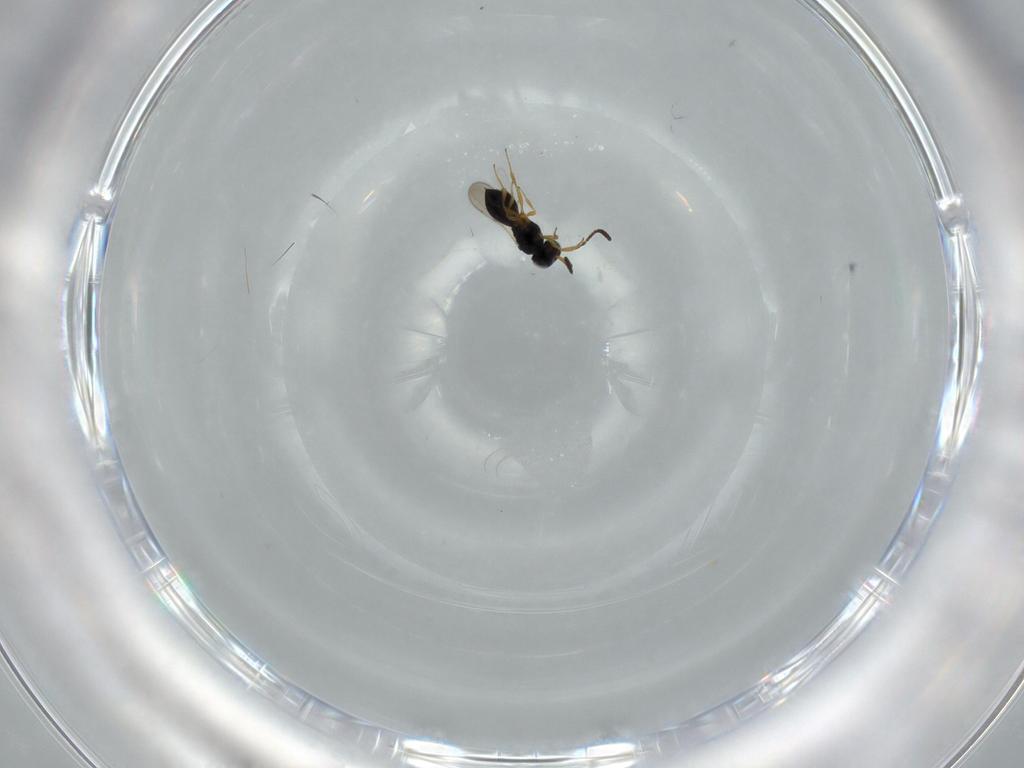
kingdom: Animalia
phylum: Arthropoda
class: Insecta
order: Hymenoptera
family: Scelionidae
